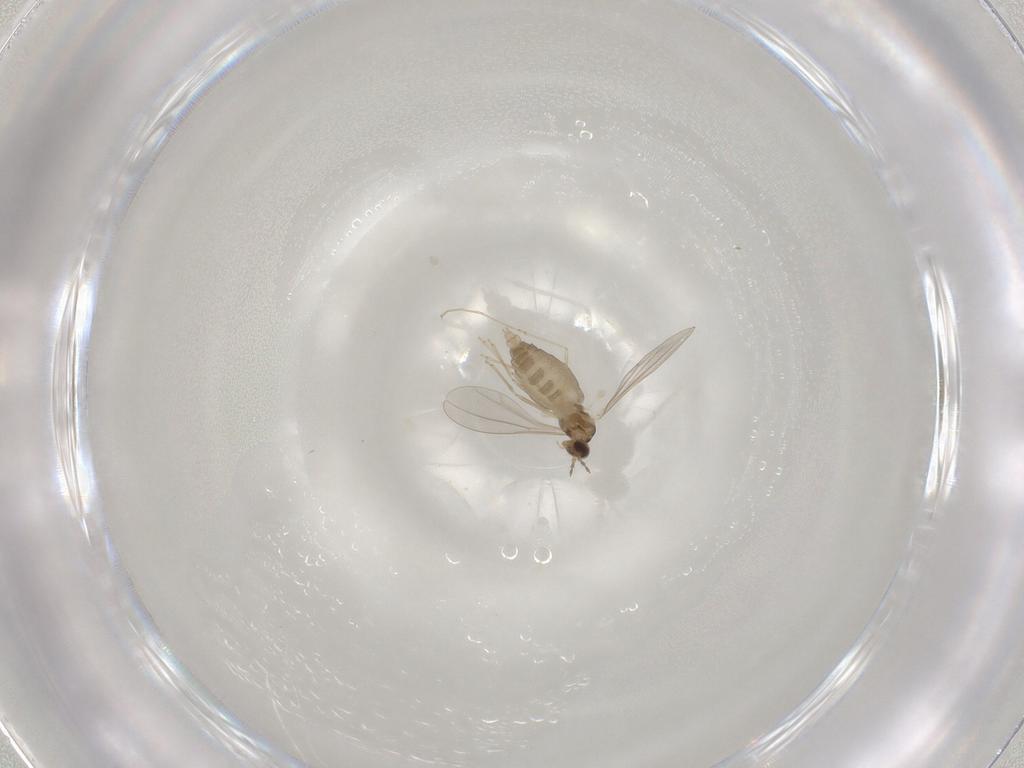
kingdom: Animalia
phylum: Arthropoda
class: Insecta
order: Diptera
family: Cecidomyiidae
